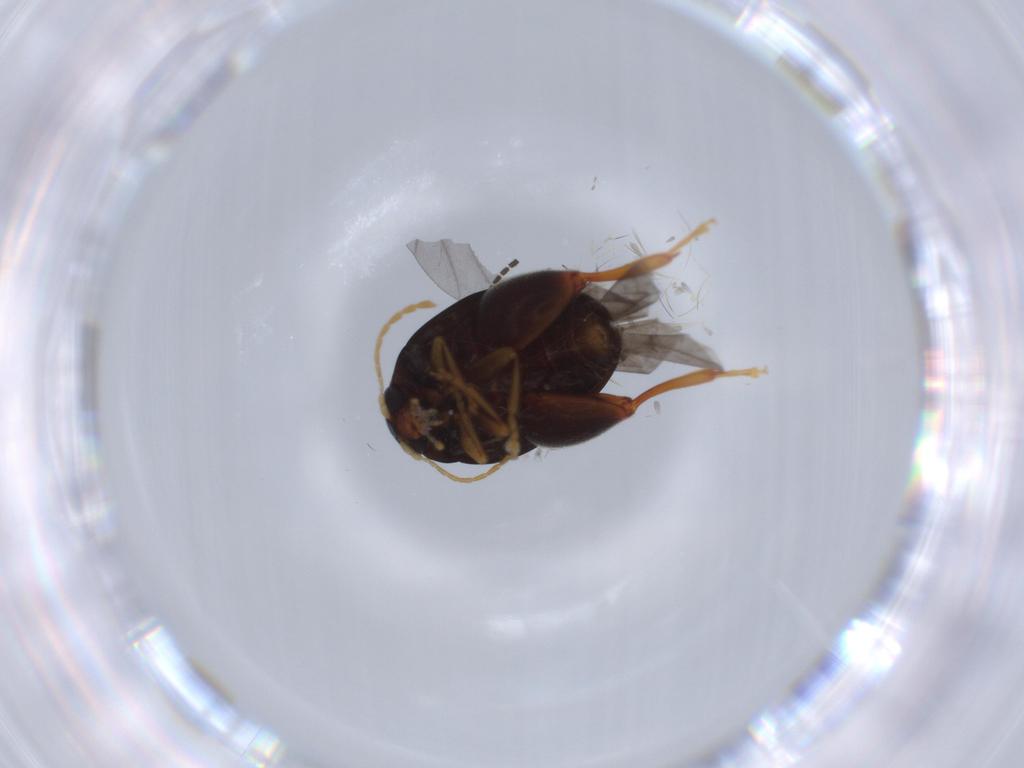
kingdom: Animalia
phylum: Arthropoda
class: Insecta
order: Coleoptera
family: Chrysomelidae
